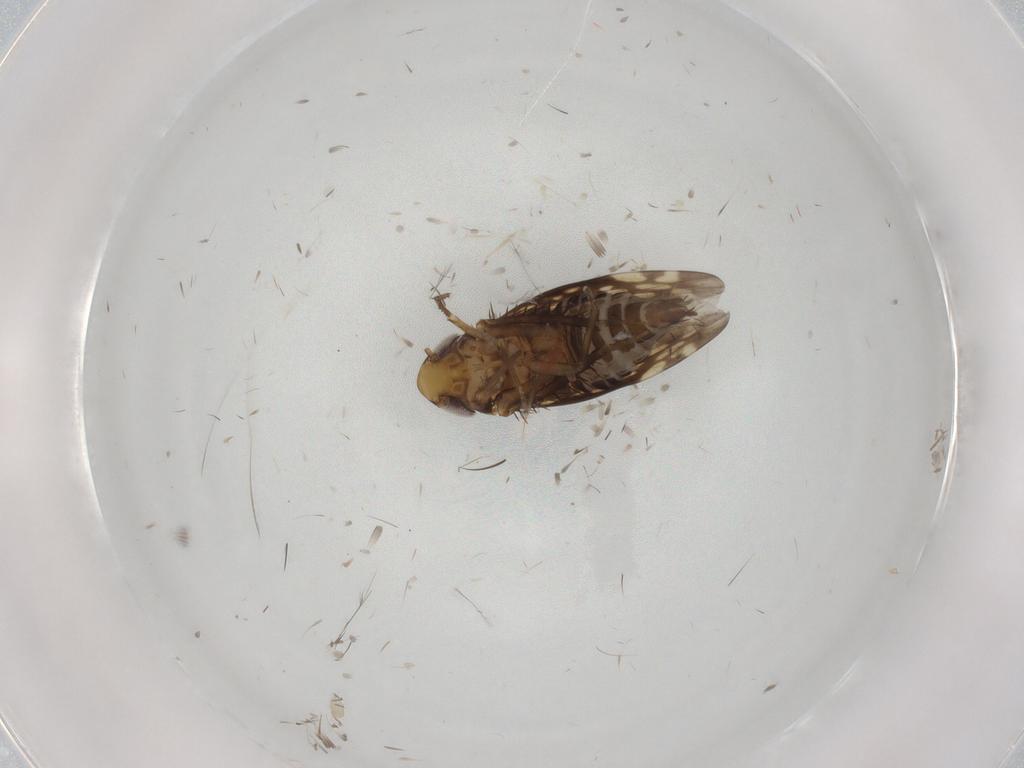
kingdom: Animalia
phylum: Arthropoda
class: Insecta
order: Hemiptera
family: Cicadellidae
